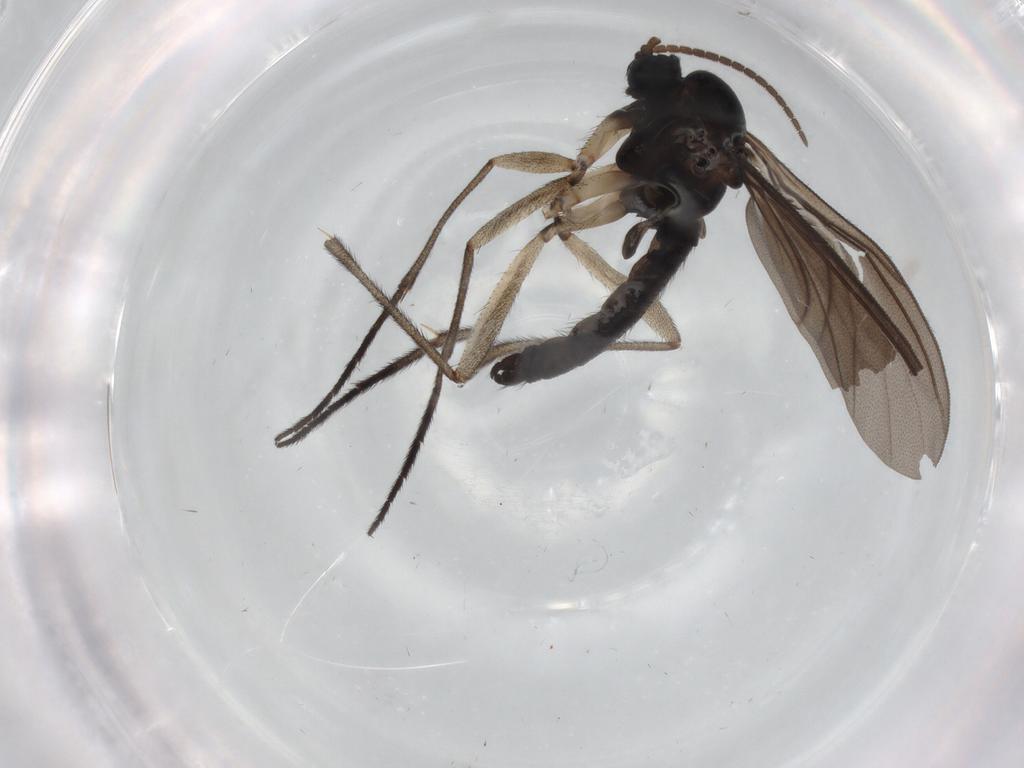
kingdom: Animalia
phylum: Arthropoda
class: Insecta
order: Diptera
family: Sciaridae
